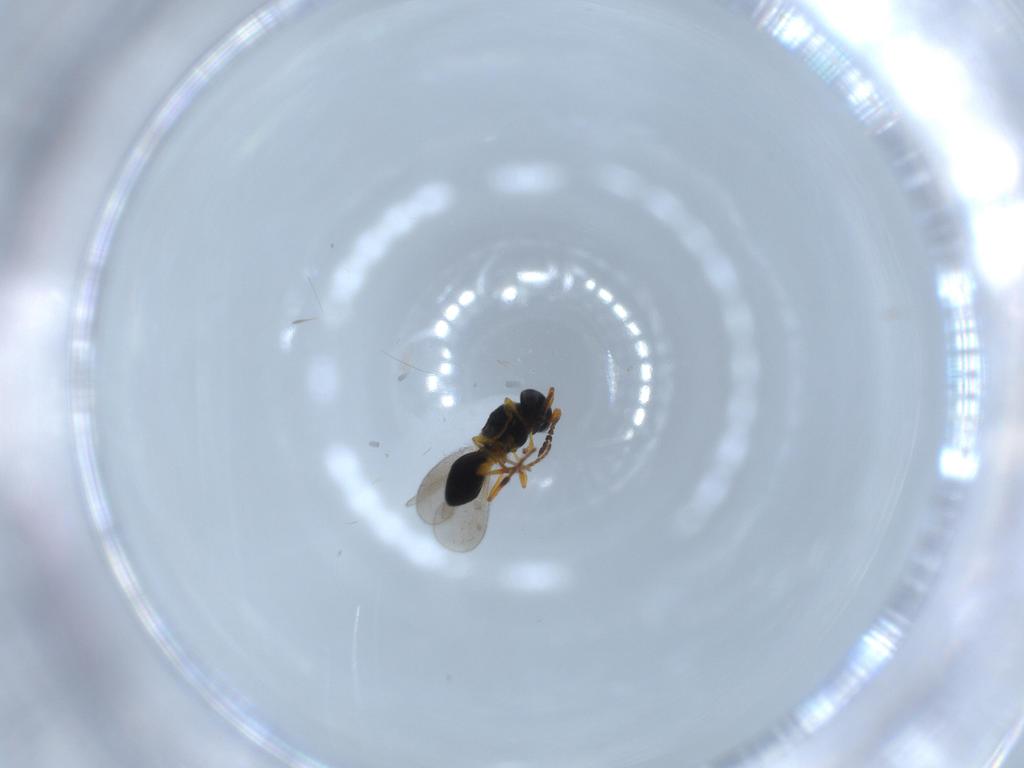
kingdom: Animalia
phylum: Arthropoda
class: Insecta
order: Hymenoptera
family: Platygastridae
